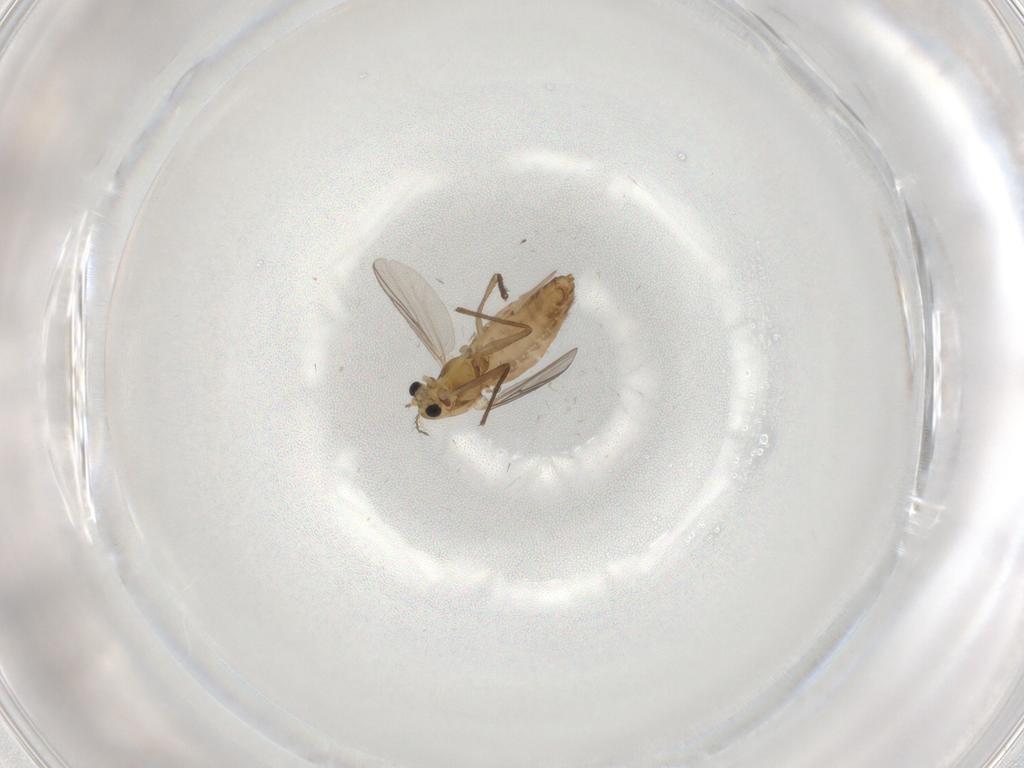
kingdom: Animalia
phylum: Arthropoda
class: Insecta
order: Diptera
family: Chironomidae
